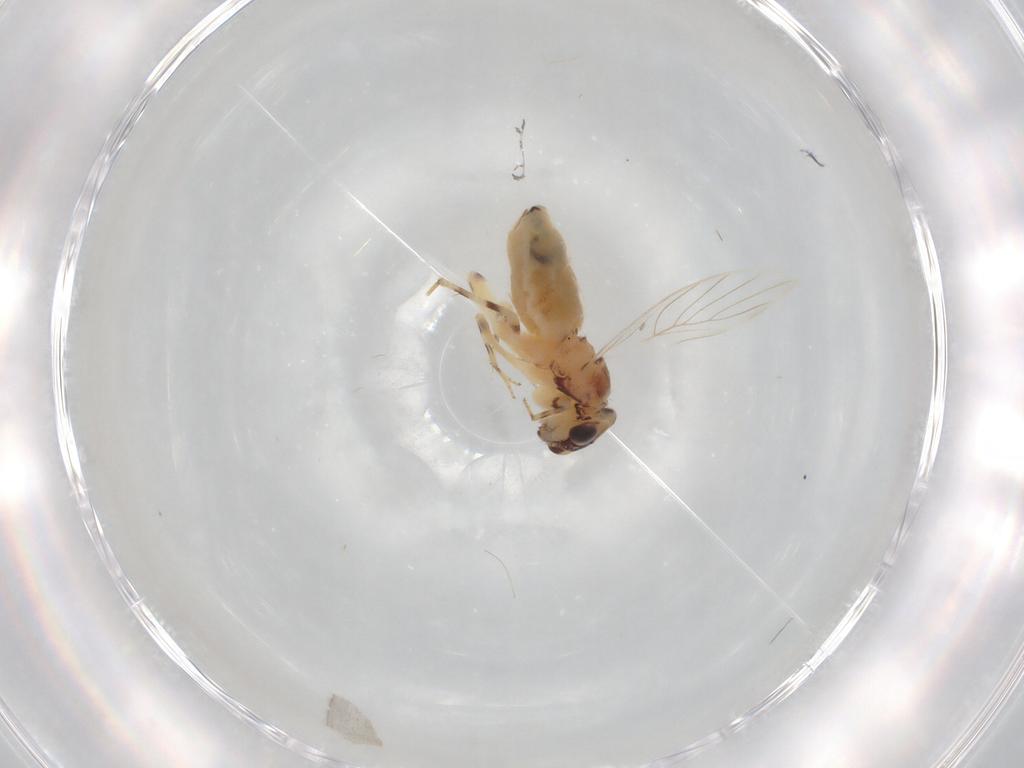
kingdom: Animalia
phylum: Arthropoda
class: Insecta
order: Psocodea
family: Lepidopsocidae
